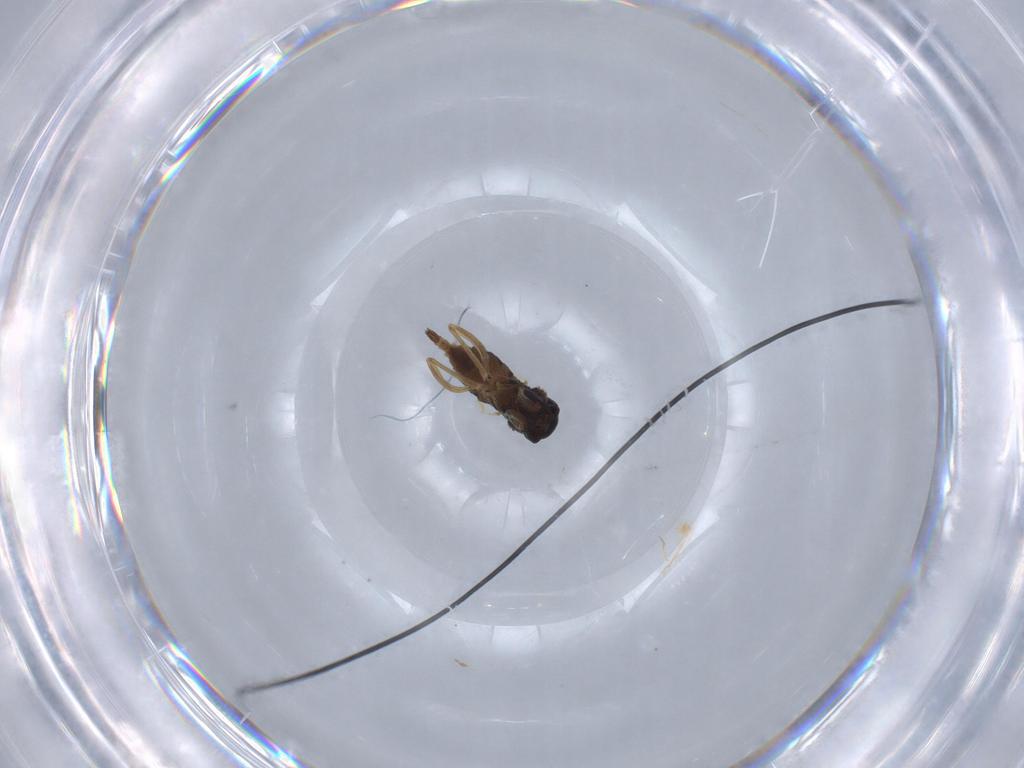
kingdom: Animalia
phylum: Arthropoda
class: Insecta
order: Diptera
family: Sciaridae
